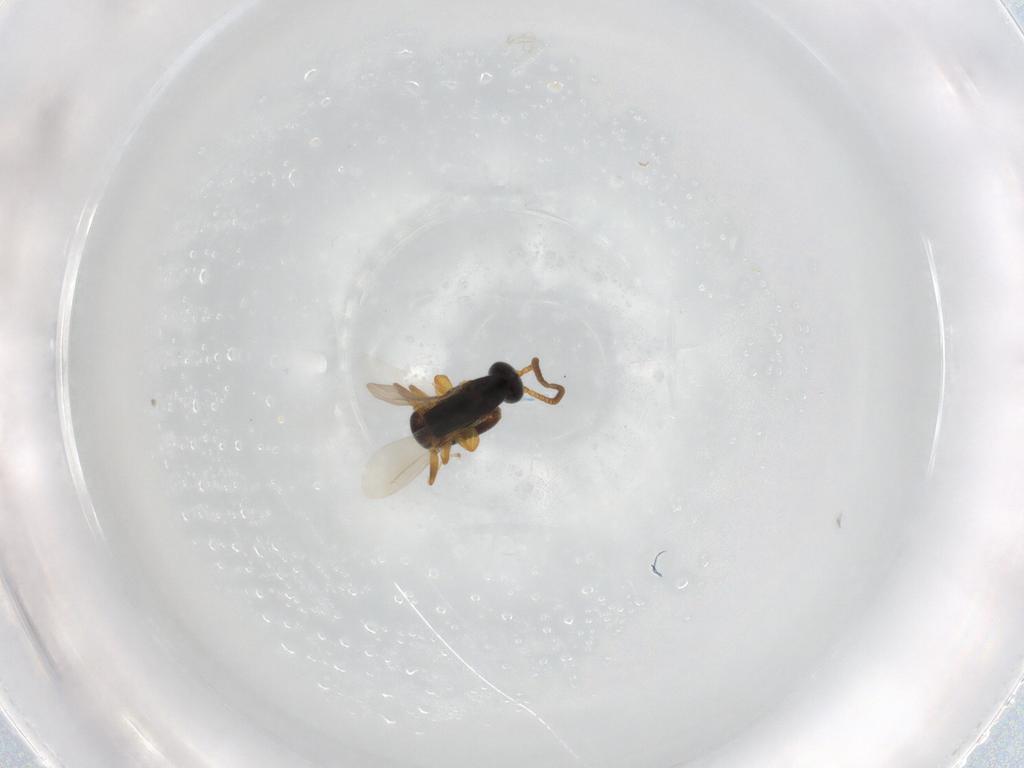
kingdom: Animalia
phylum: Arthropoda
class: Insecta
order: Hymenoptera
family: Bethylidae
